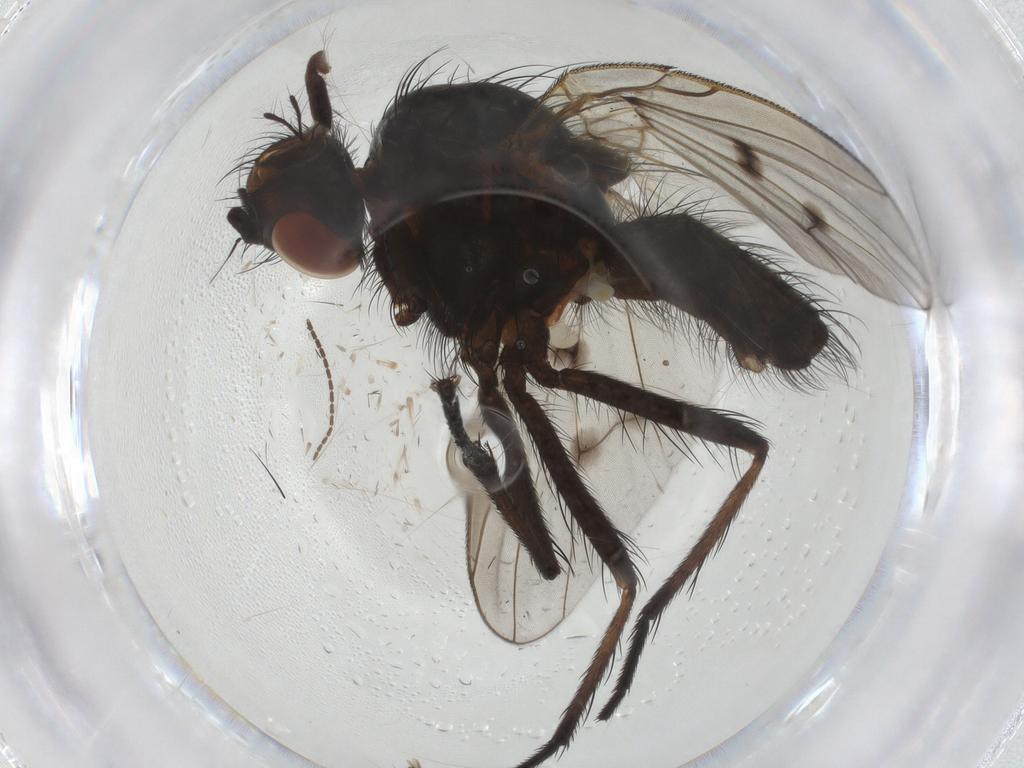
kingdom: Animalia
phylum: Arthropoda
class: Insecta
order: Diptera
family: Anthomyiidae
